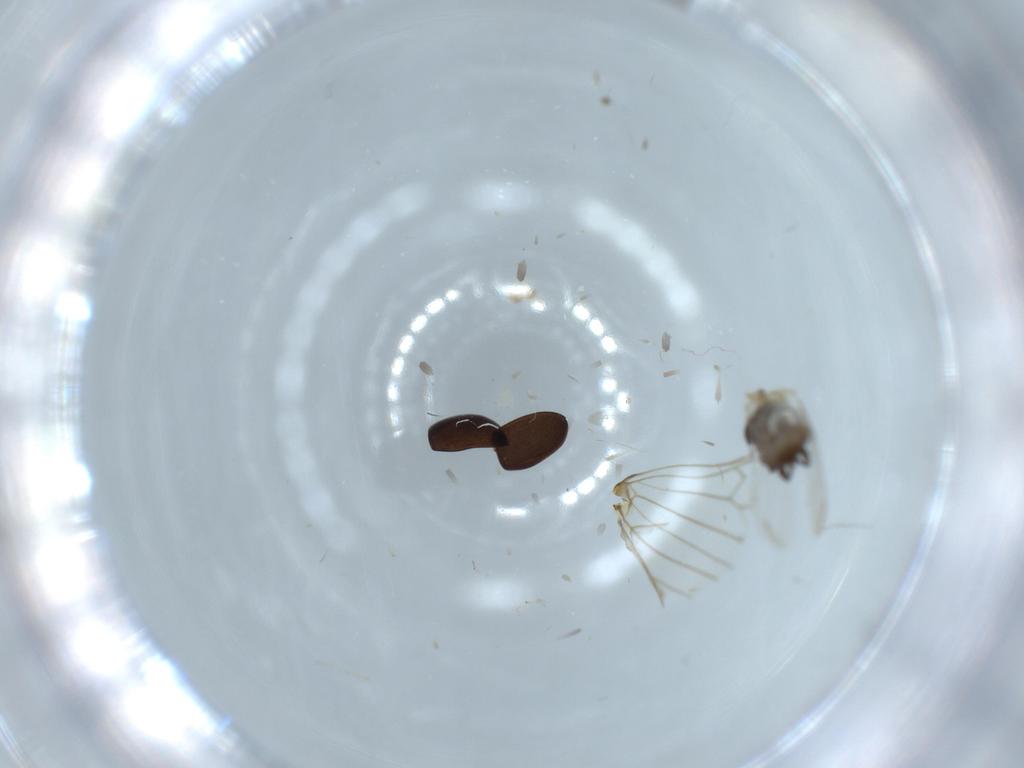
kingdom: Animalia
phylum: Arthropoda
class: Insecta
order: Coleoptera
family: Coccinellidae
